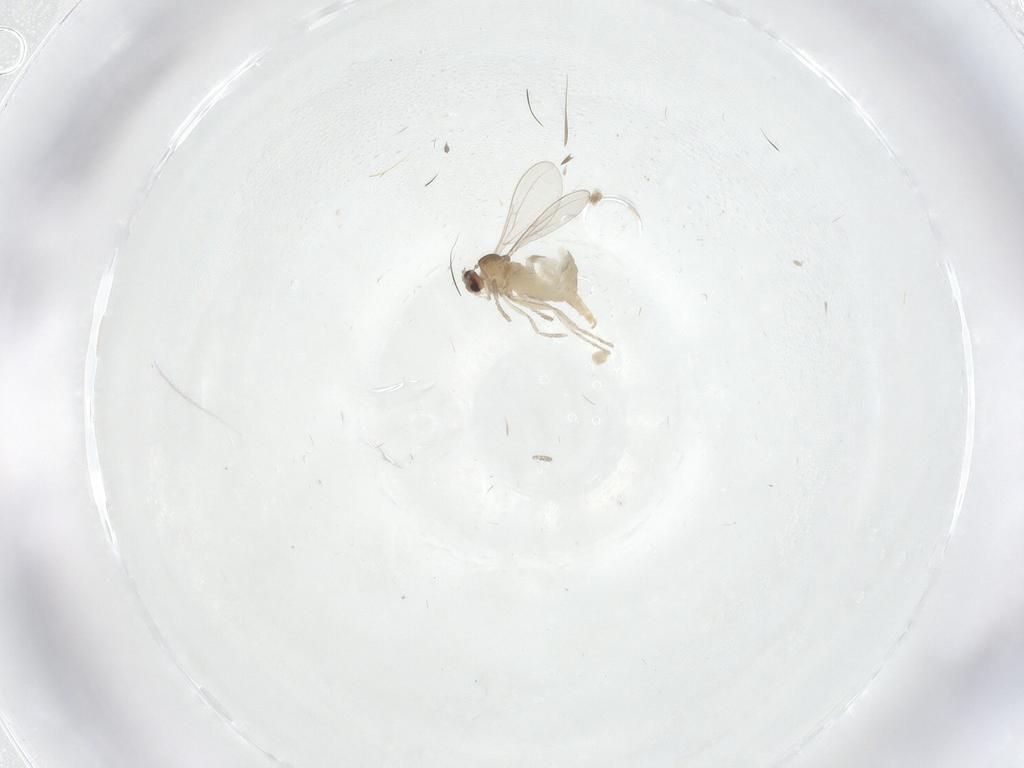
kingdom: Animalia
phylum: Arthropoda
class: Insecta
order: Diptera
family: Cecidomyiidae
